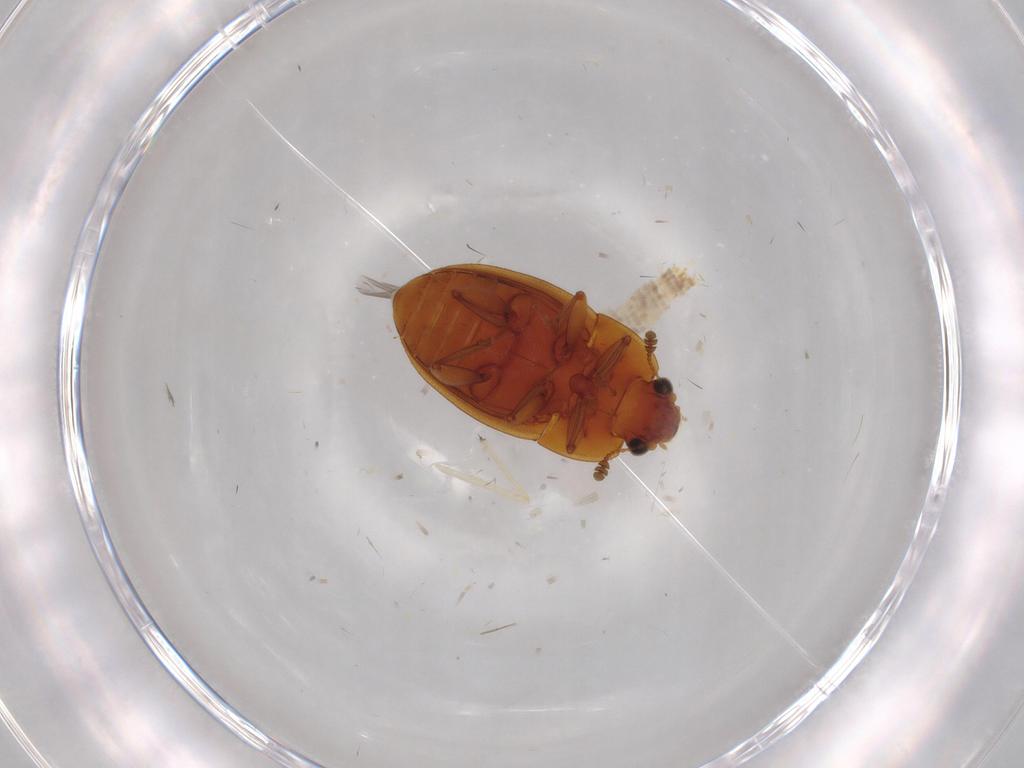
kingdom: Animalia
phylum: Arthropoda
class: Insecta
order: Coleoptera
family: Nitidulidae
